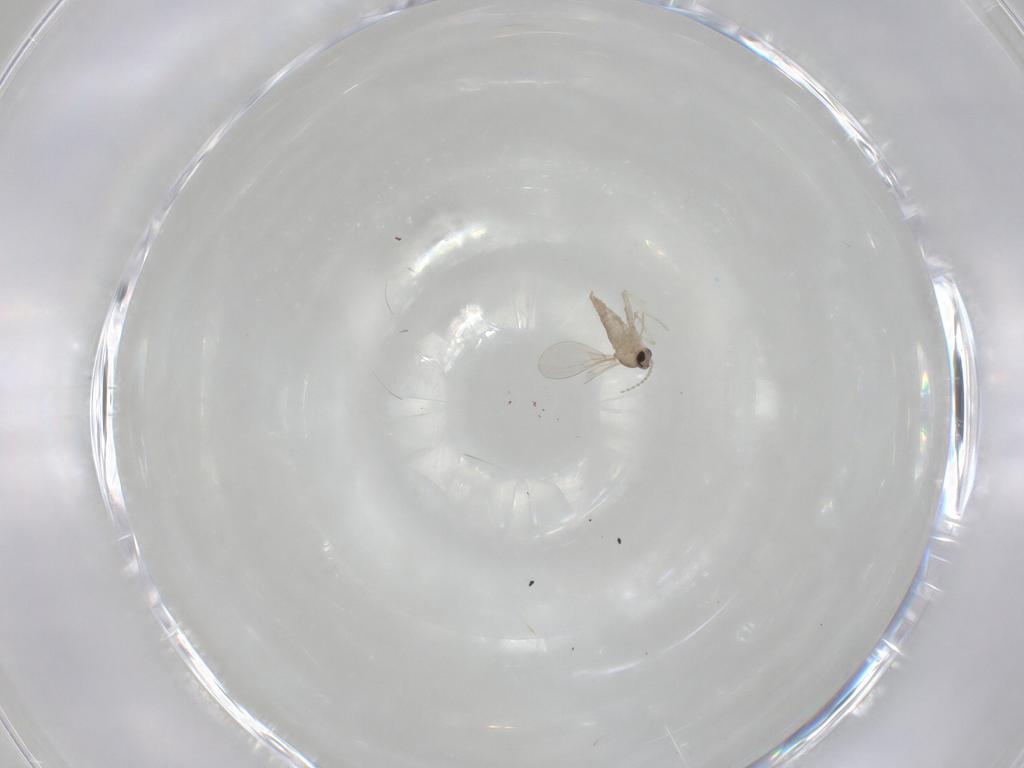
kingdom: Animalia
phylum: Arthropoda
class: Insecta
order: Diptera
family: Cecidomyiidae
